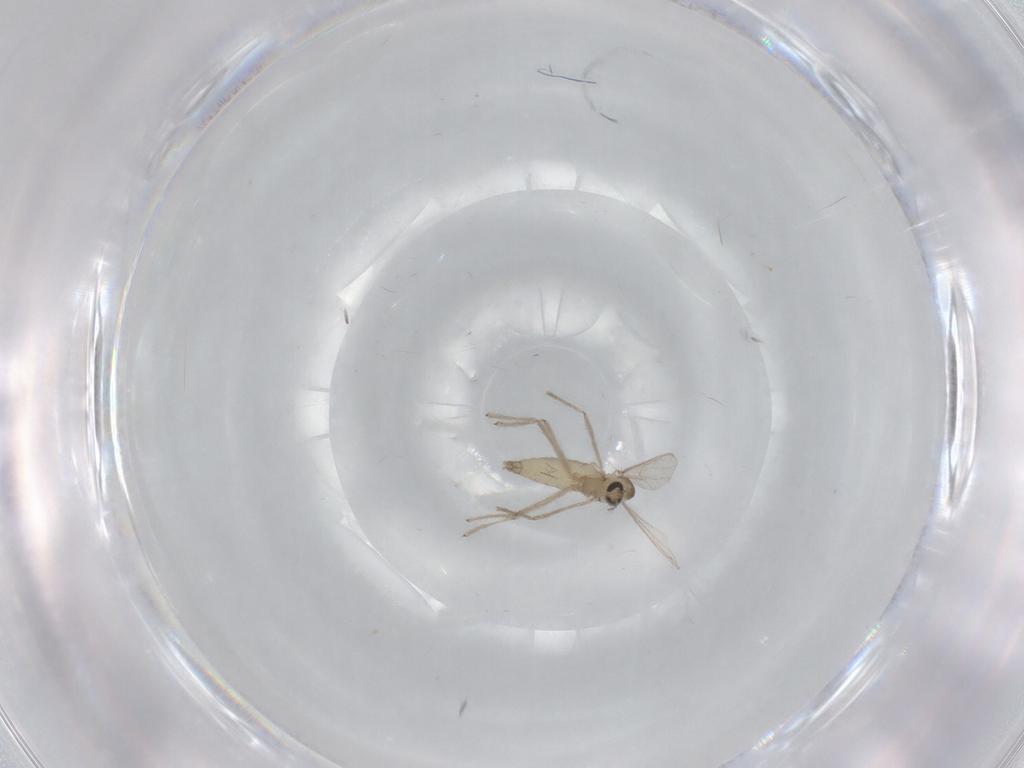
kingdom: Animalia
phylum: Arthropoda
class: Insecta
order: Diptera
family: Chironomidae
